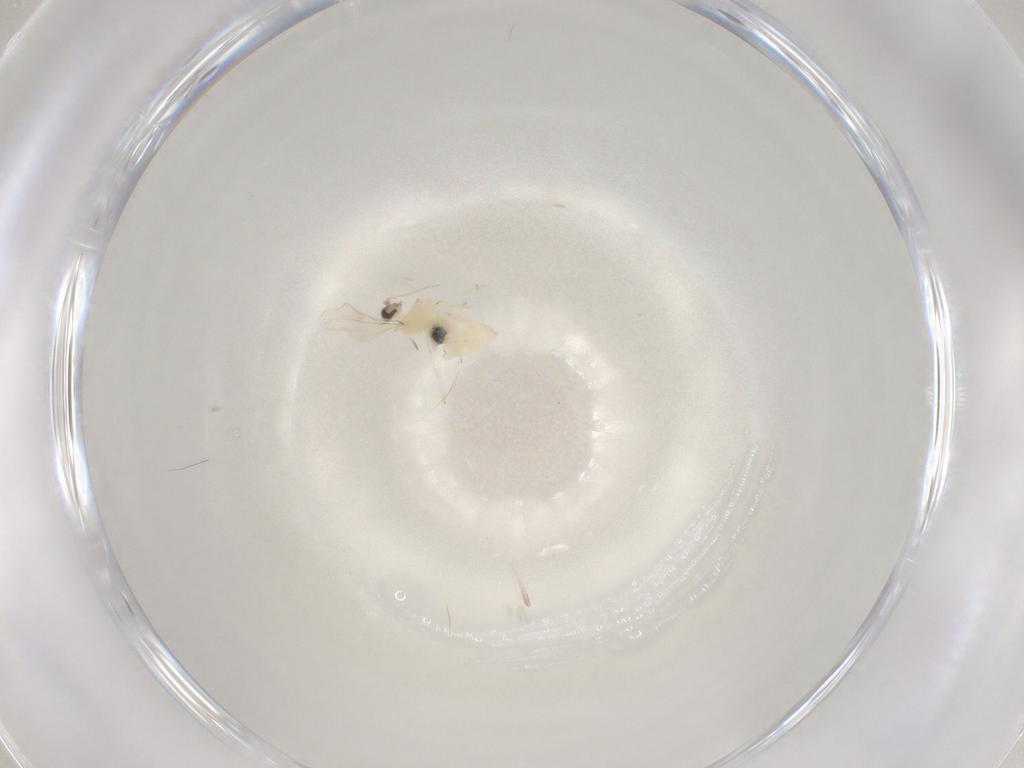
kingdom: Animalia
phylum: Arthropoda
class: Insecta
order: Diptera
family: Cecidomyiidae
